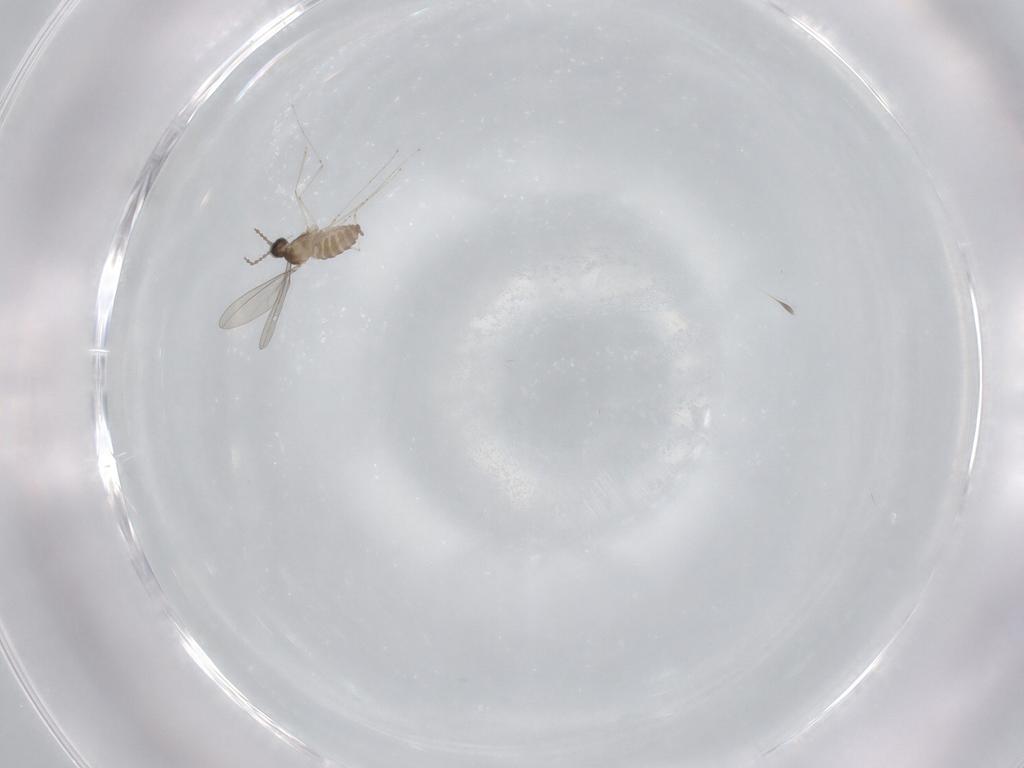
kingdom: Animalia
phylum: Arthropoda
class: Insecta
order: Diptera
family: Cecidomyiidae
